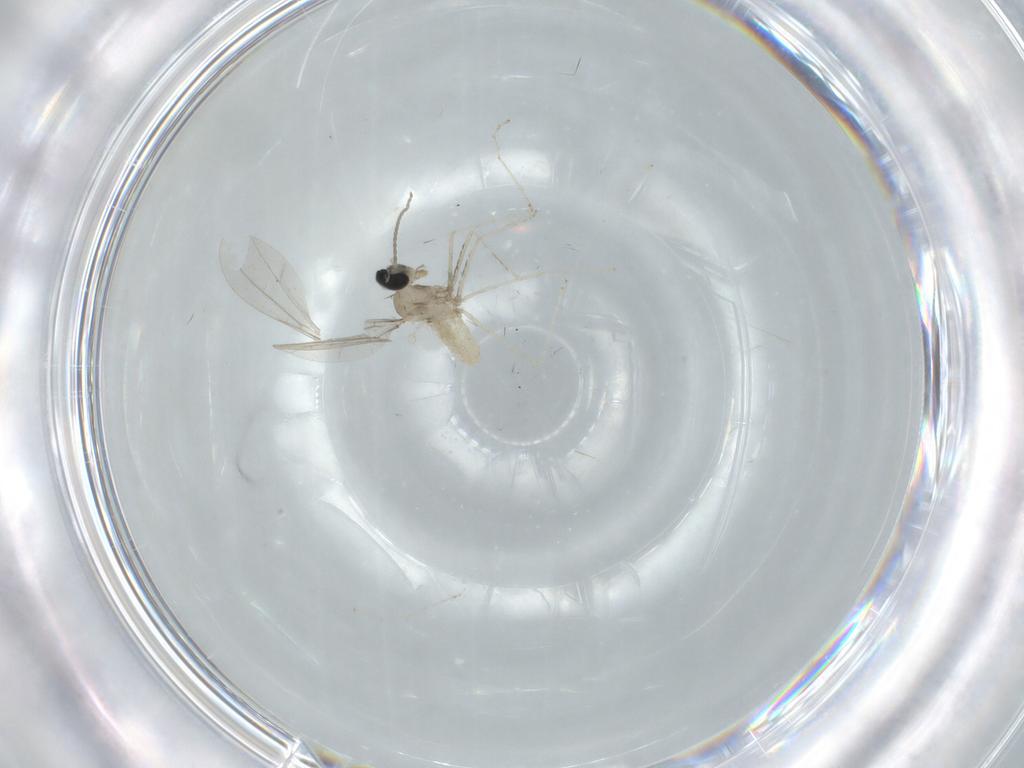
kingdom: Animalia
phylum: Arthropoda
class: Insecta
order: Diptera
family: Cecidomyiidae
